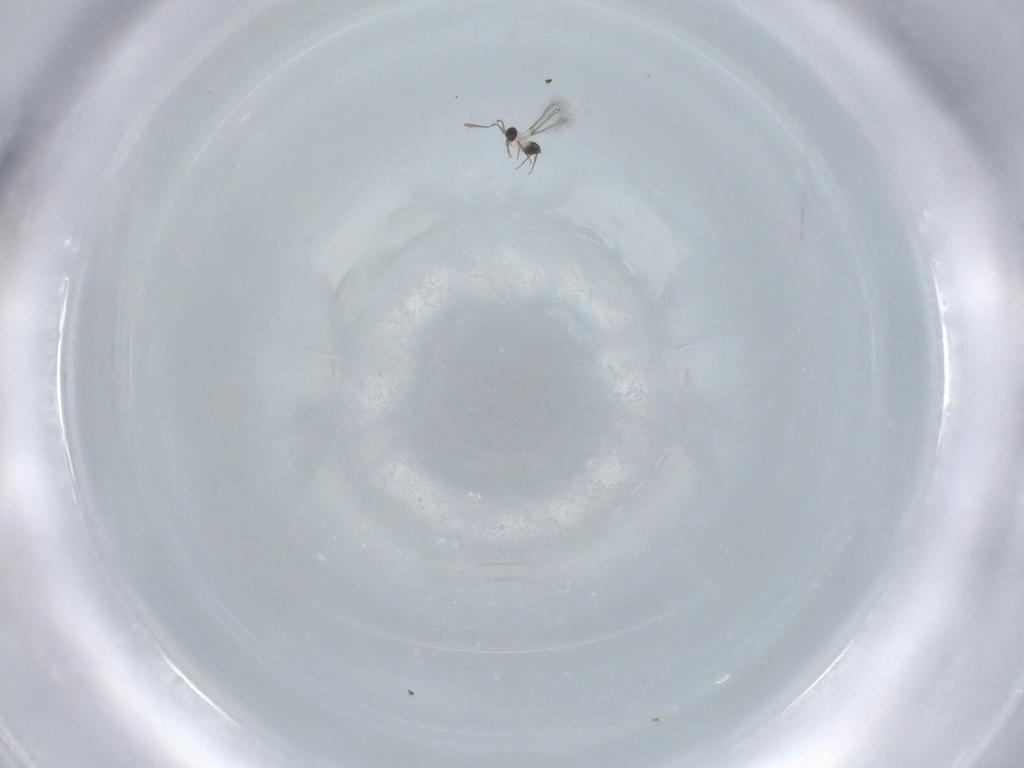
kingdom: Animalia
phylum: Arthropoda
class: Insecta
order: Hymenoptera
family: Mymaridae
